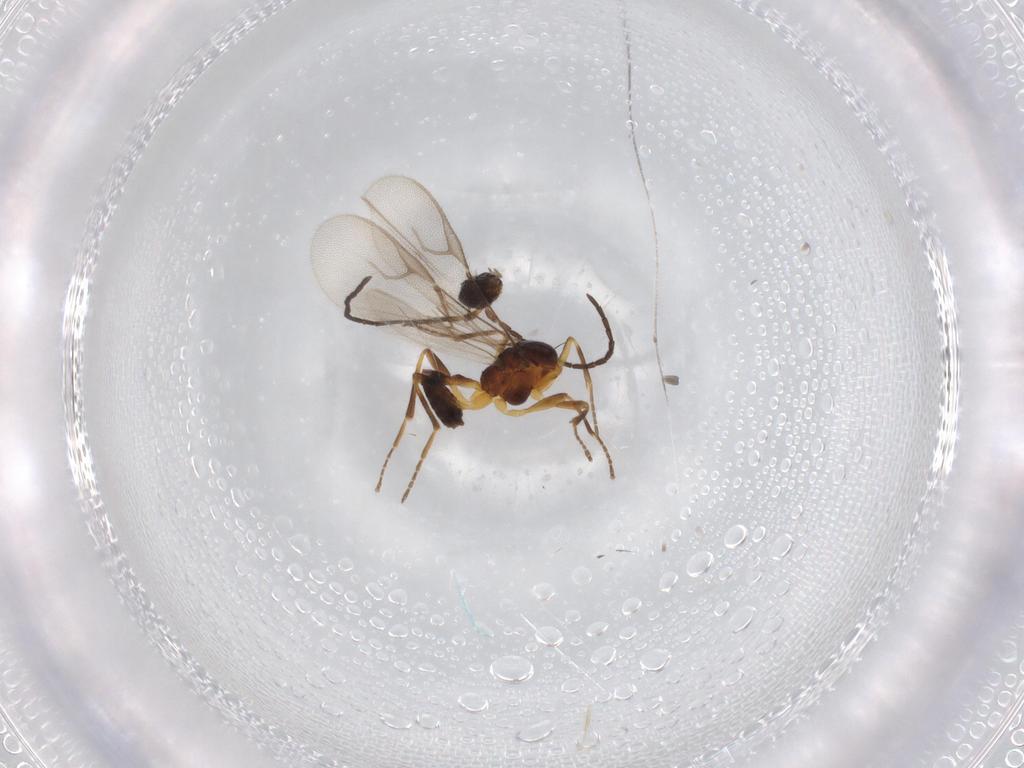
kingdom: Animalia
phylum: Arthropoda
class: Insecta
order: Hymenoptera
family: Braconidae
